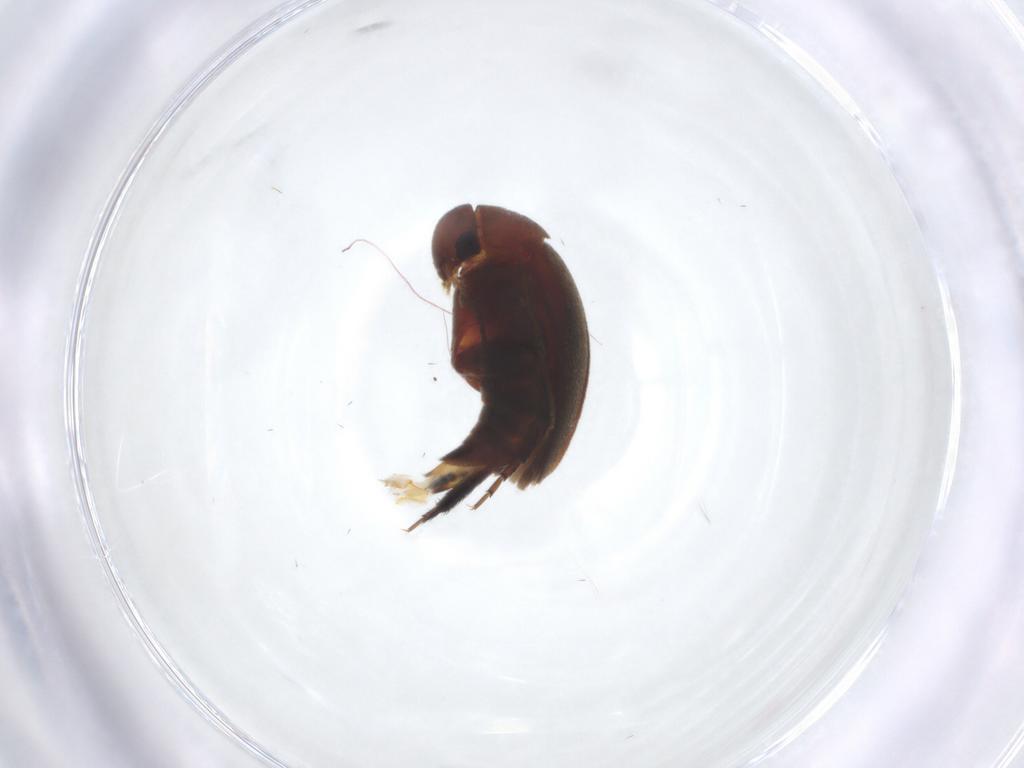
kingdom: Animalia
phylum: Arthropoda
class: Insecta
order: Coleoptera
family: Mordellidae
